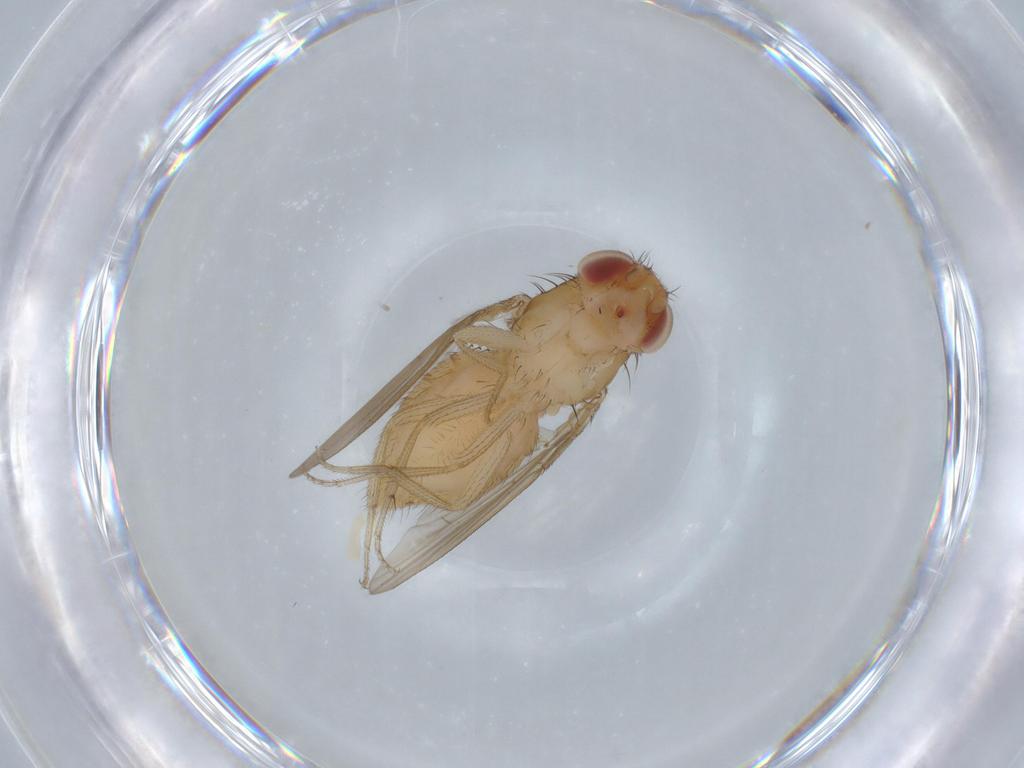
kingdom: Animalia
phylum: Arthropoda
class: Insecta
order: Diptera
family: Drosophilidae
